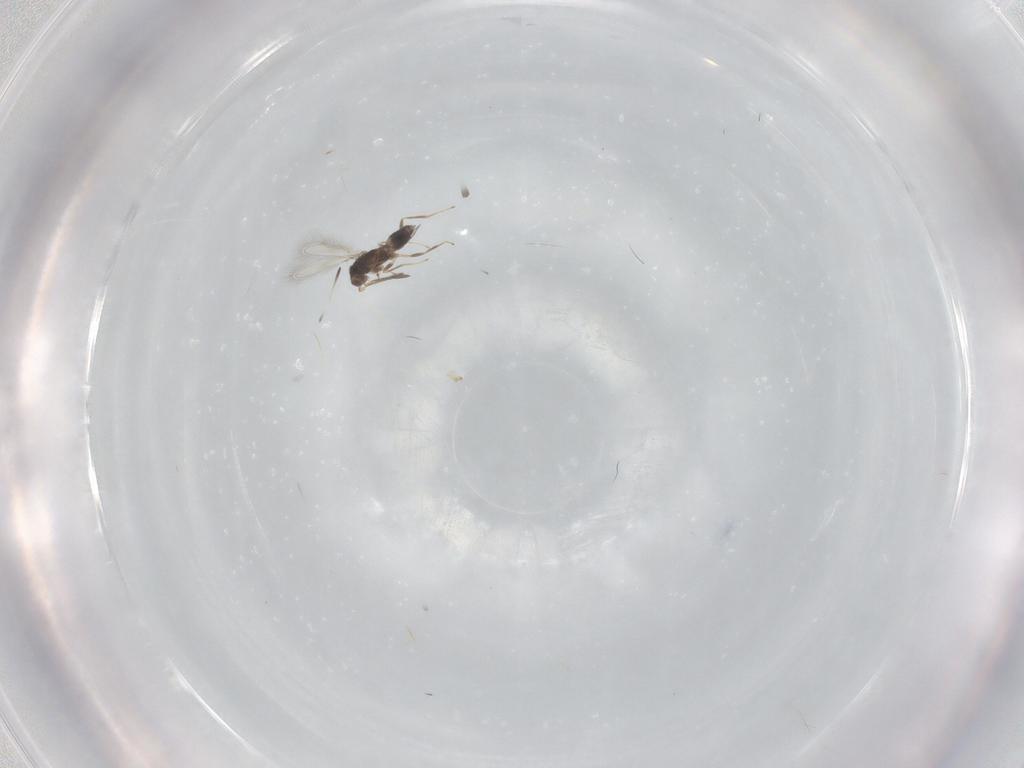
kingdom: Animalia
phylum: Arthropoda
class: Insecta
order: Hymenoptera
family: Mymaridae
